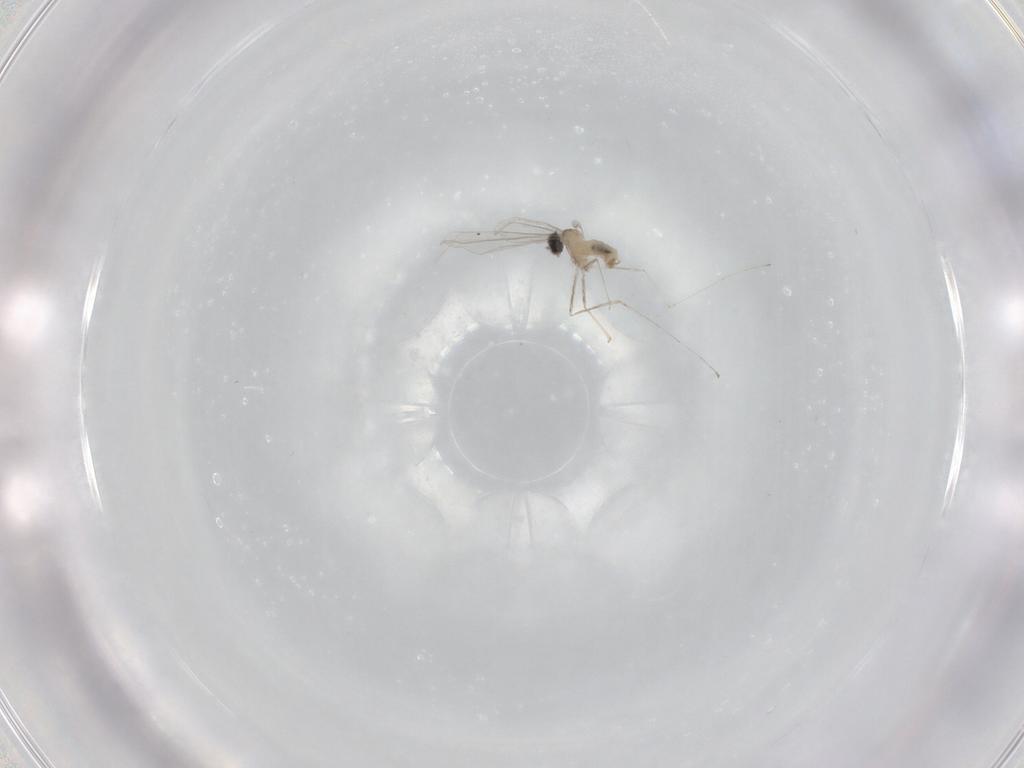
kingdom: Animalia
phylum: Arthropoda
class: Insecta
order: Diptera
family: Cecidomyiidae
